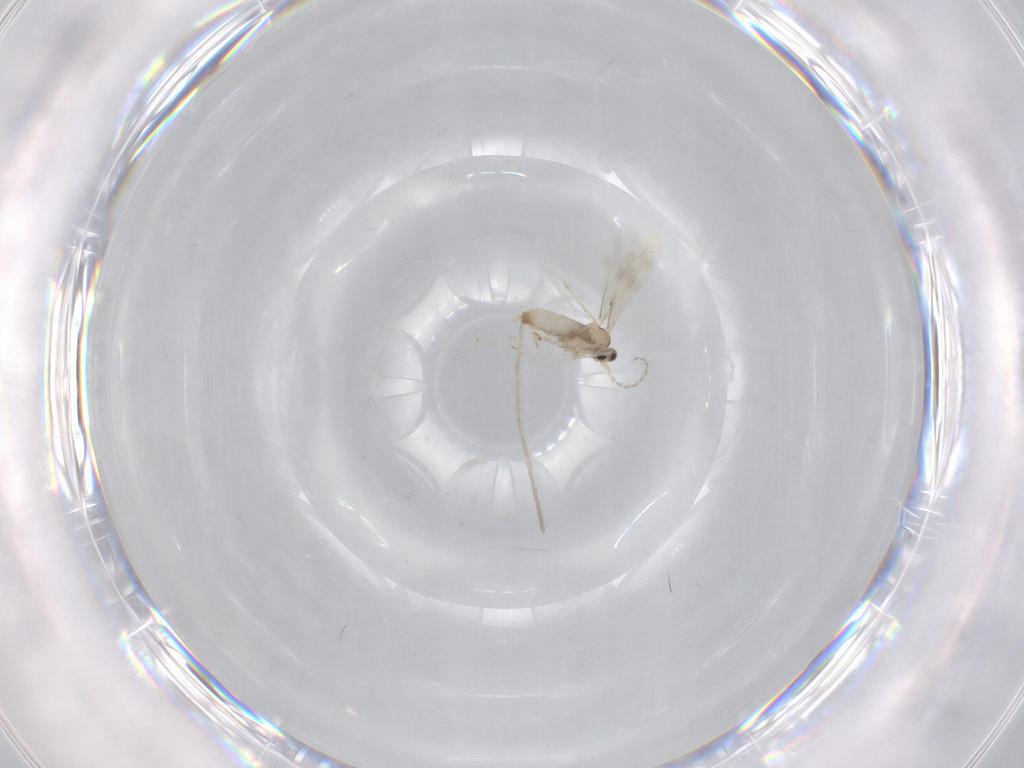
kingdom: Animalia
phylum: Arthropoda
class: Insecta
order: Diptera
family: Cecidomyiidae
